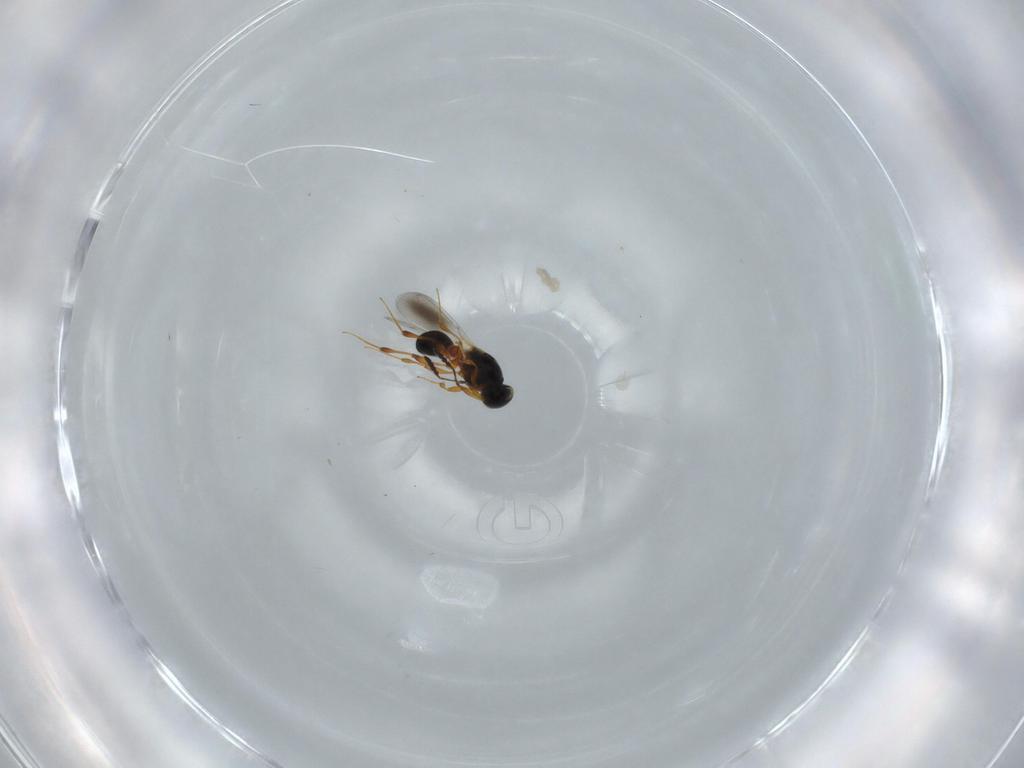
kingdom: Animalia
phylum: Arthropoda
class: Insecta
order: Hymenoptera
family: Platygastridae
